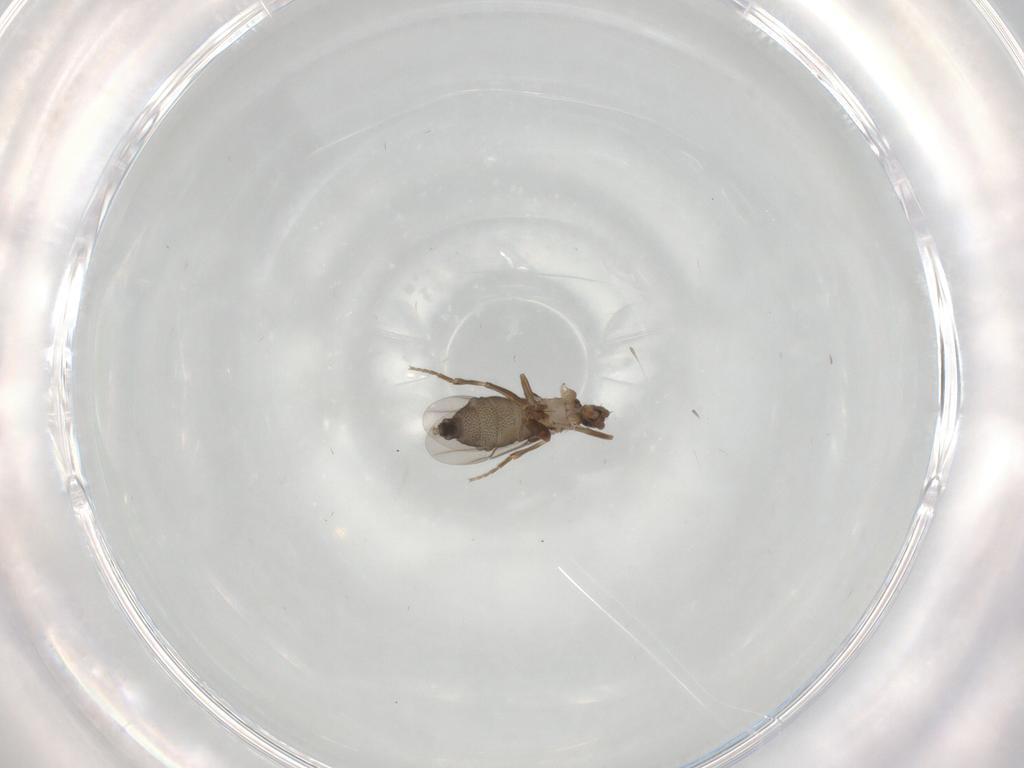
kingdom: Animalia
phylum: Arthropoda
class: Insecta
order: Diptera
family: Phoridae
